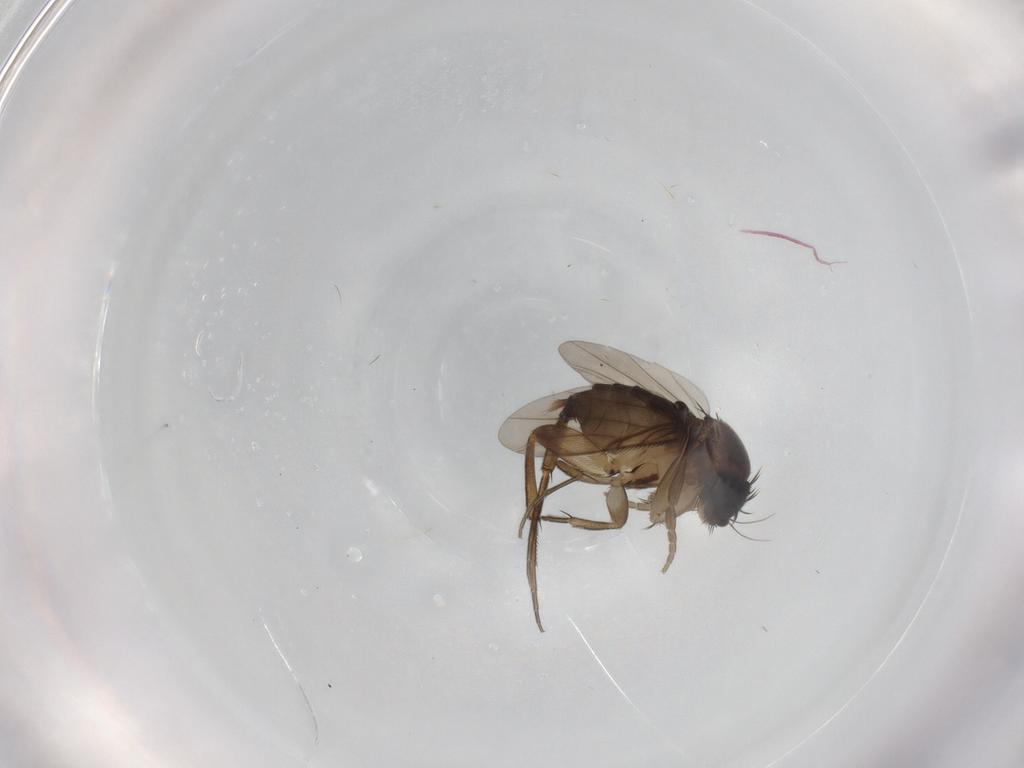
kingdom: Animalia
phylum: Arthropoda
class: Insecta
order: Diptera
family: Phoridae
